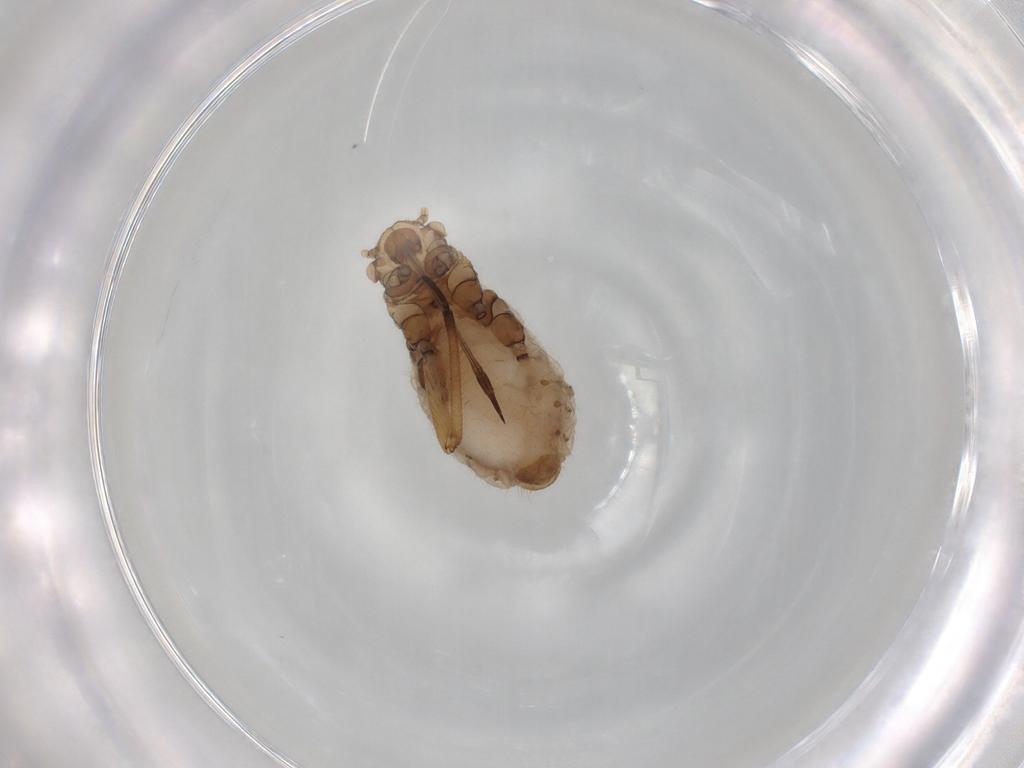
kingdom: Animalia
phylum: Arthropoda
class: Insecta
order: Hemiptera
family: Aphididae
